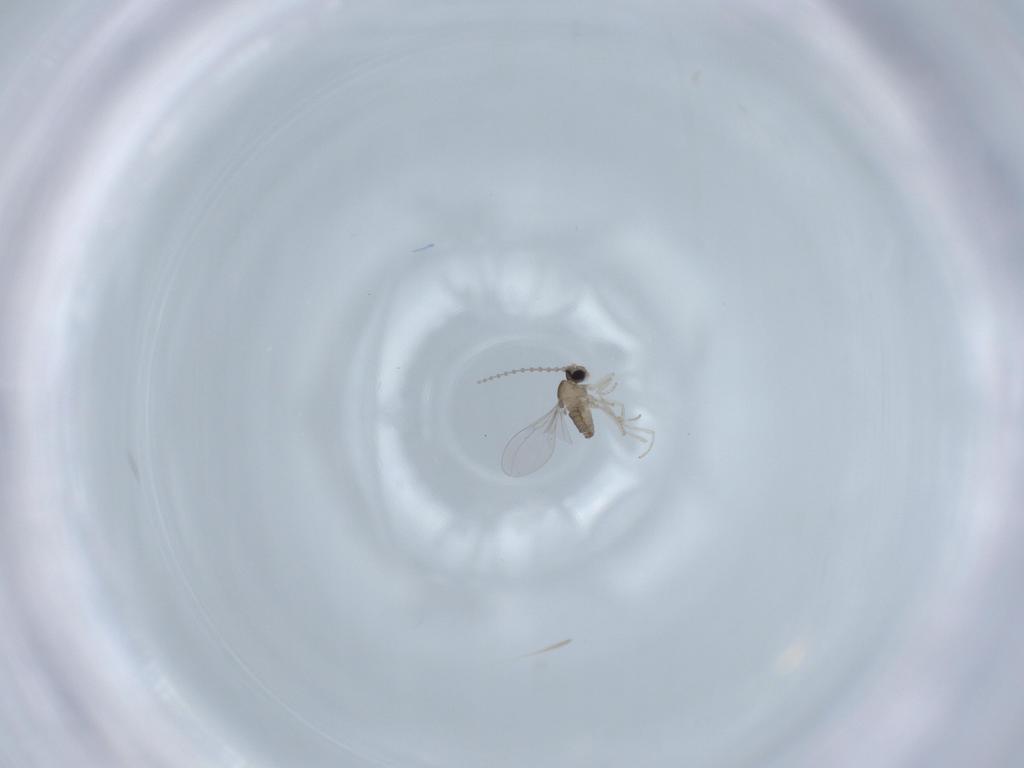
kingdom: Animalia
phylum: Arthropoda
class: Insecta
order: Diptera
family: Cecidomyiidae
